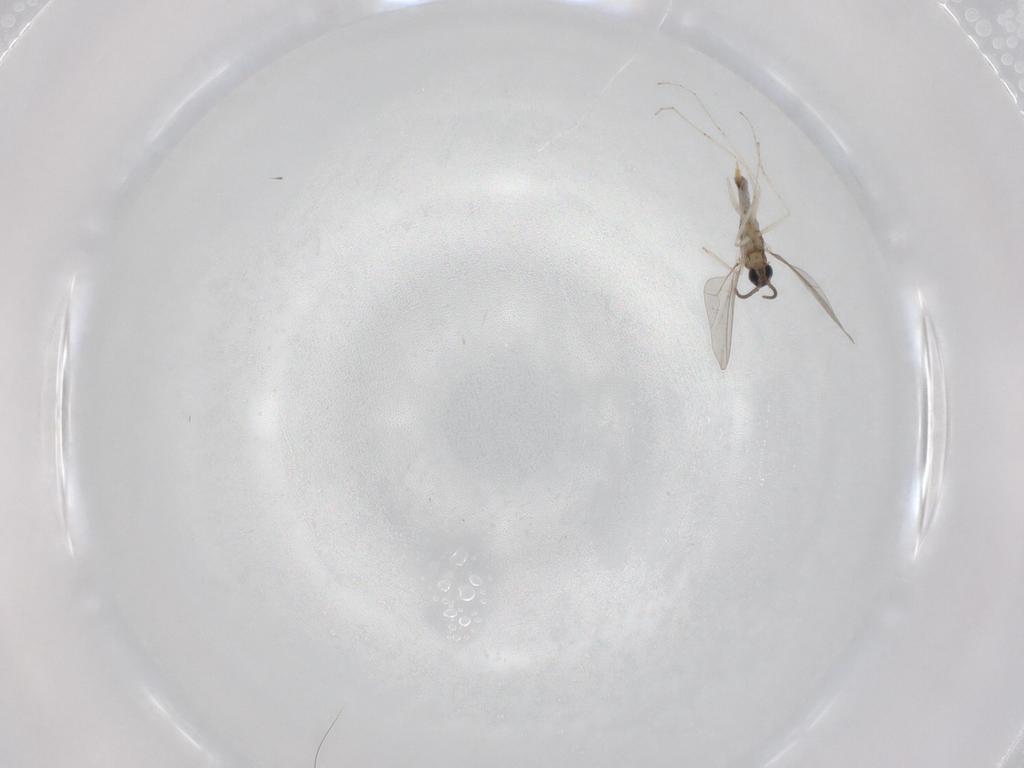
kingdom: Animalia
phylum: Arthropoda
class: Insecta
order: Diptera
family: Cecidomyiidae
